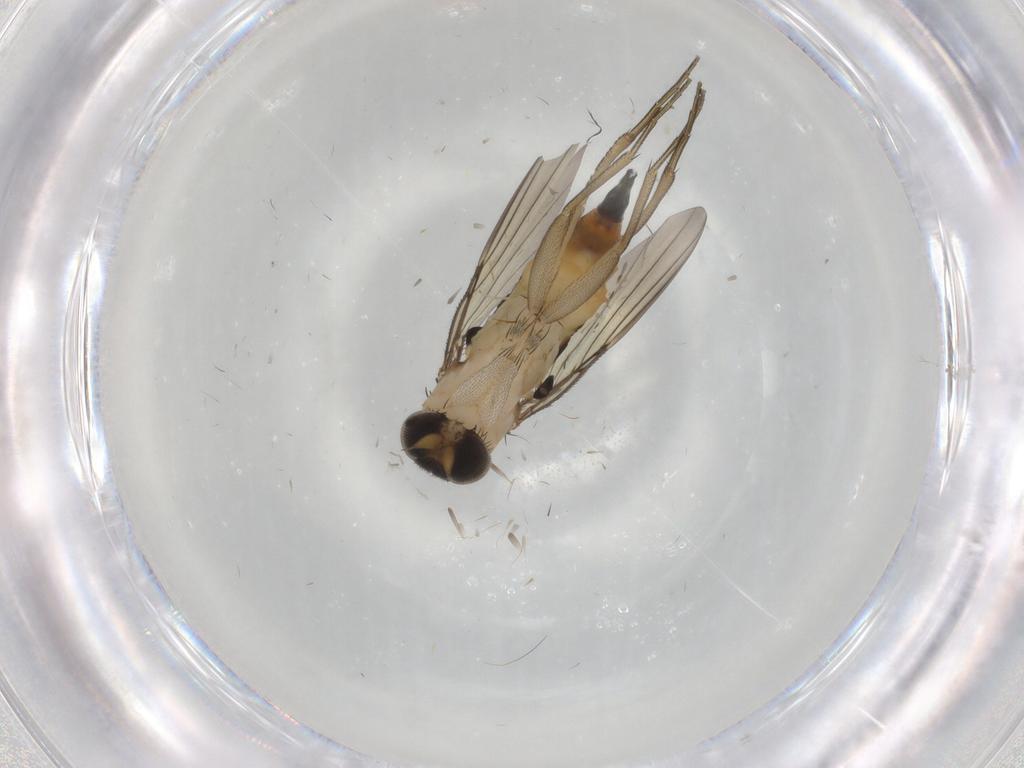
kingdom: Animalia
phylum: Arthropoda
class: Insecta
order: Diptera
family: Phoridae
